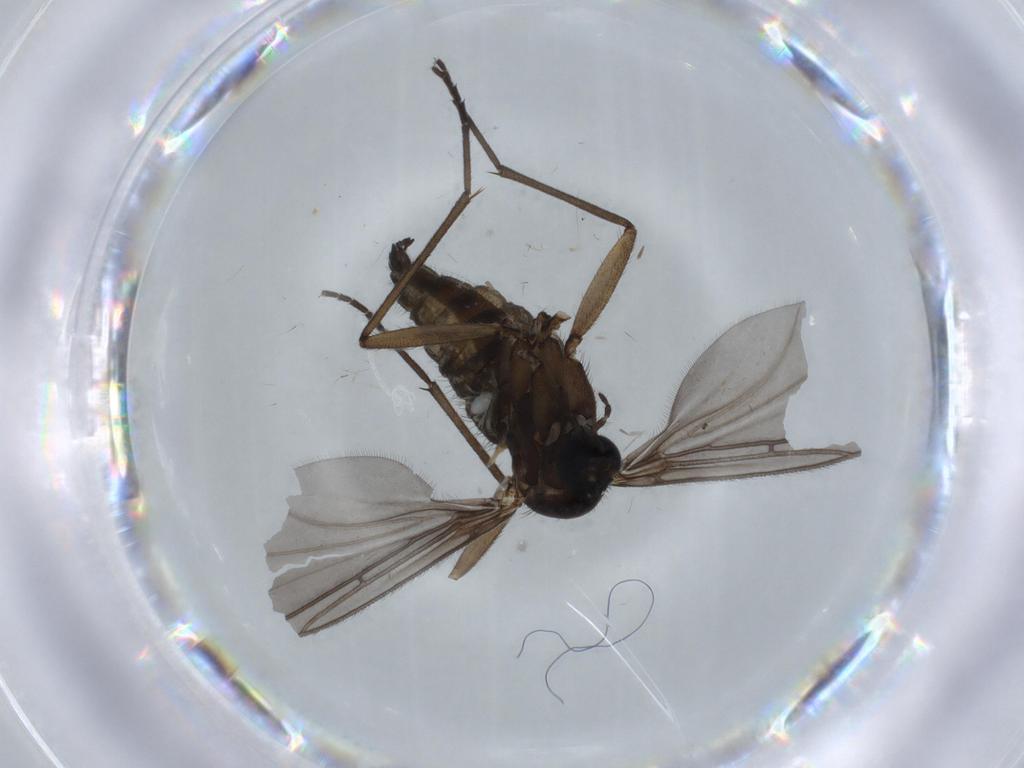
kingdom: Animalia
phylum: Arthropoda
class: Insecta
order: Diptera
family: Sciaridae
